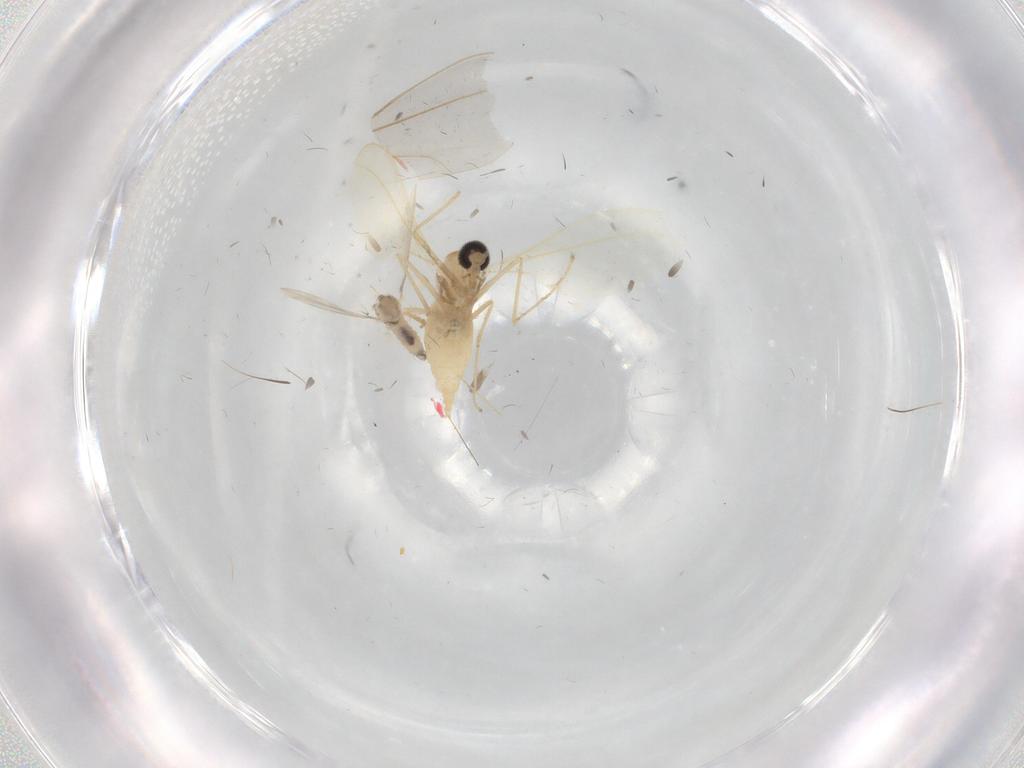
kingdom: Animalia
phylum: Arthropoda
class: Insecta
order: Diptera
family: Cecidomyiidae
